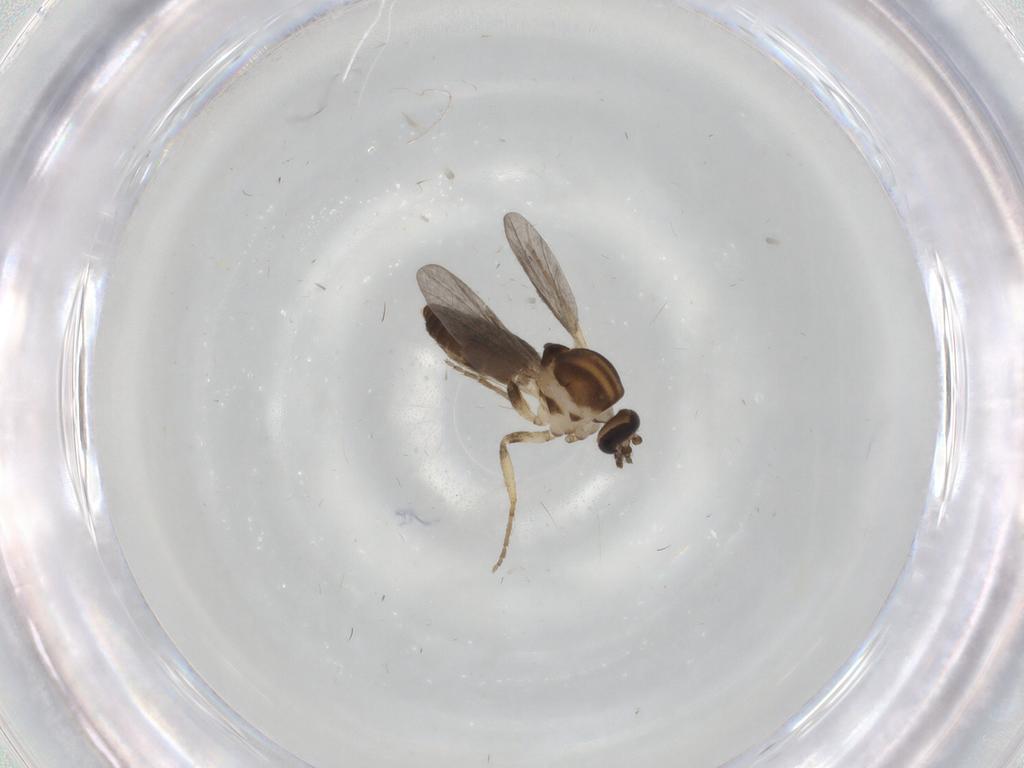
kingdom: Animalia
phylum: Arthropoda
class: Insecta
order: Diptera
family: Ceratopogonidae
